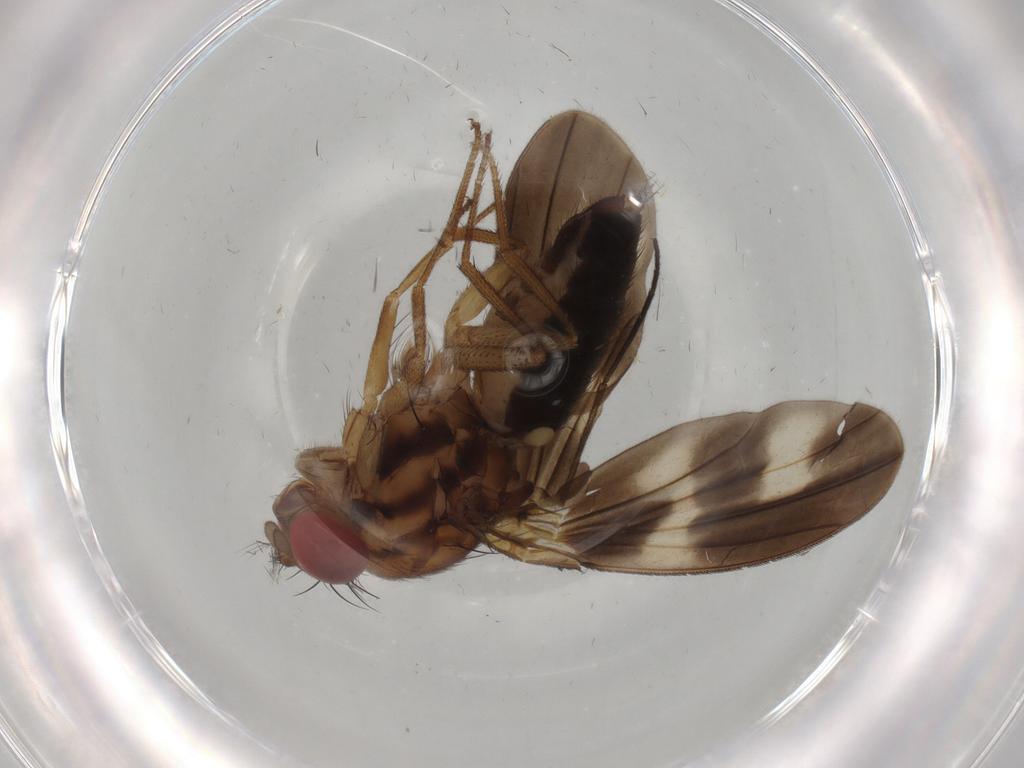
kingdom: Animalia
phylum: Arthropoda
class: Insecta
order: Diptera
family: Drosophilidae
